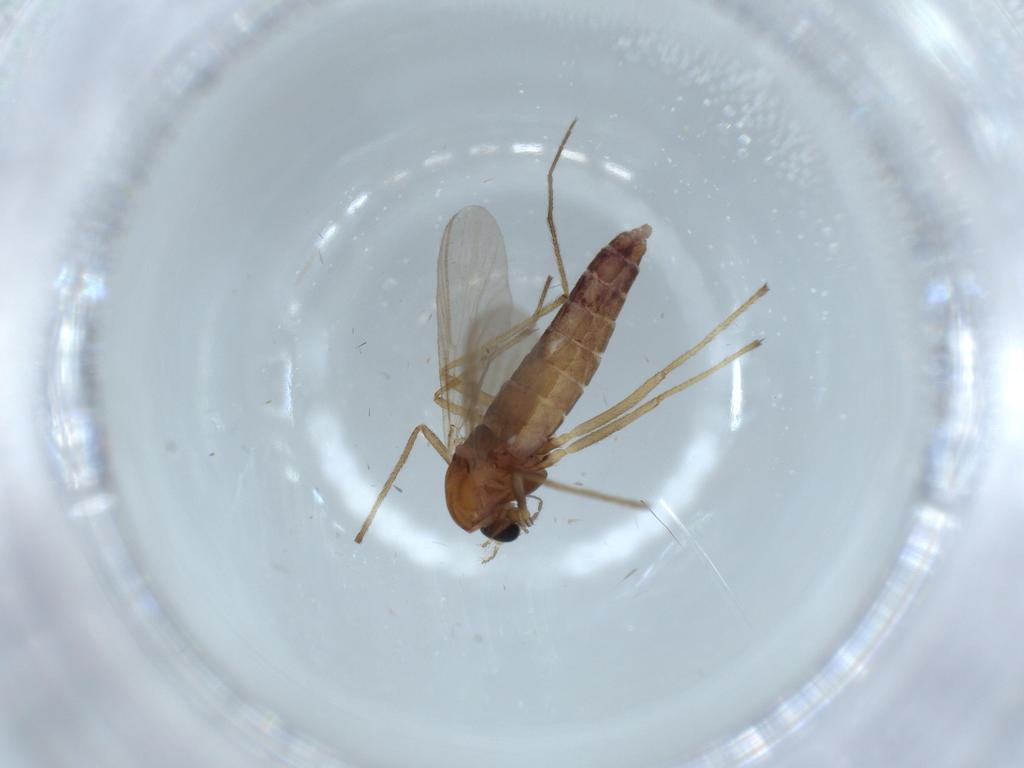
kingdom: Animalia
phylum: Arthropoda
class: Insecta
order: Diptera
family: Chironomidae
